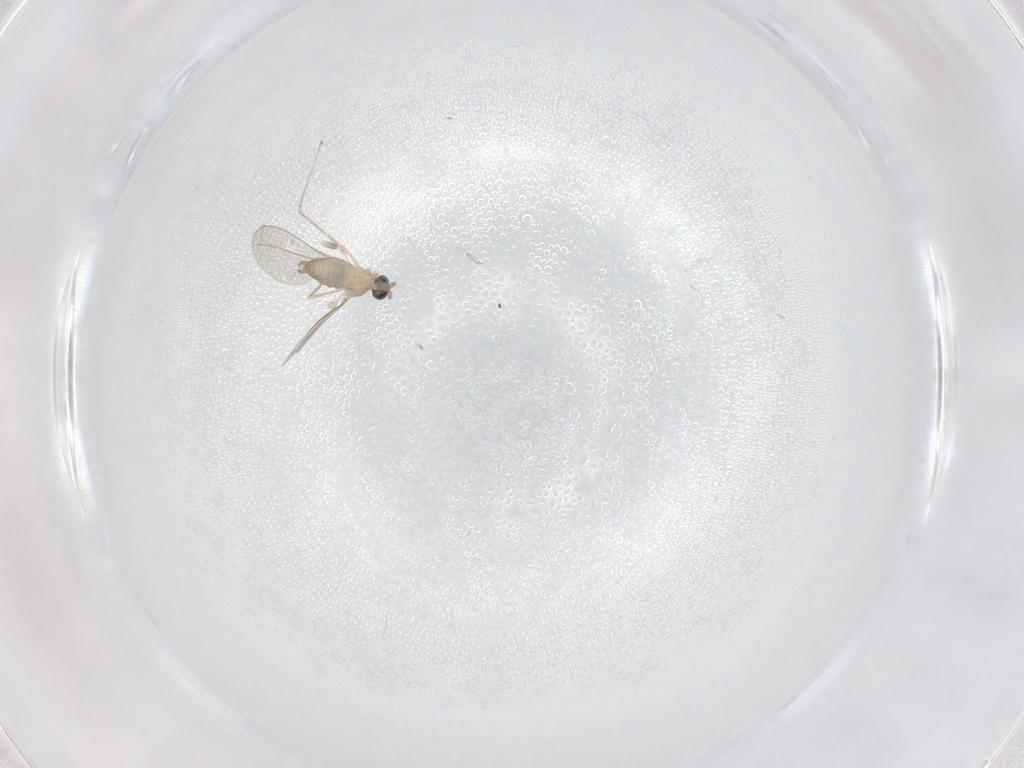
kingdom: Animalia
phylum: Arthropoda
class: Insecta
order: Diptera
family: Cecidomyiidae
